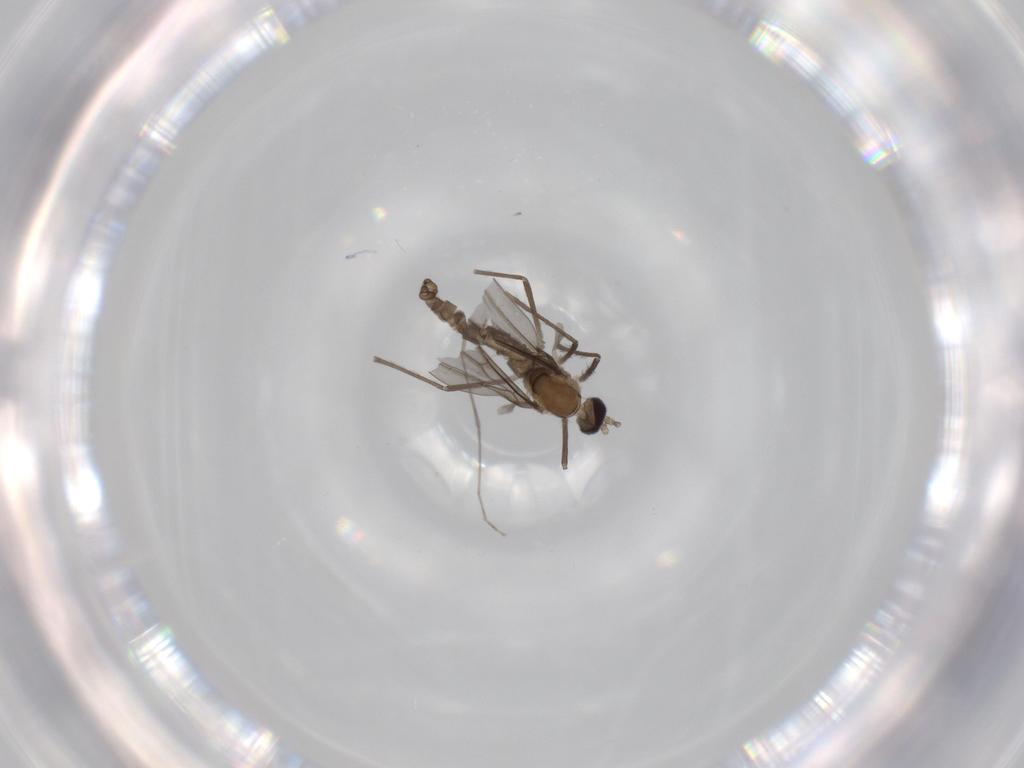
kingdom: Animalia
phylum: Arthropoda
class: Insecta
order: Diptera
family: Cecidomyiidae
